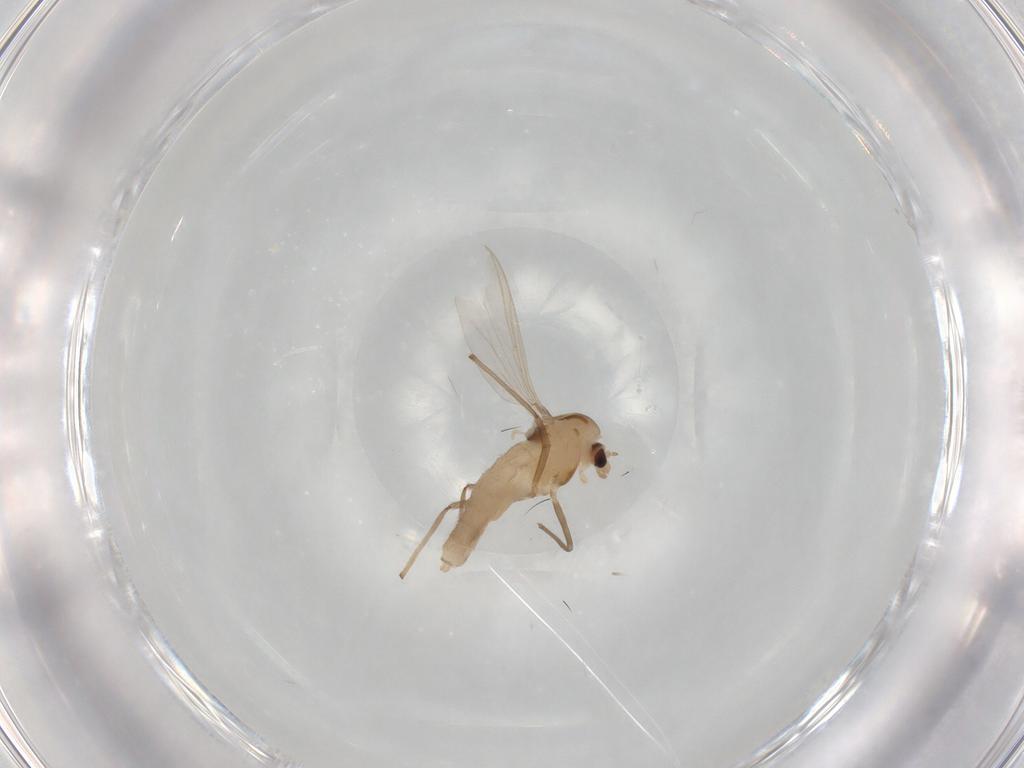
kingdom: Animalia
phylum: Arthropoda
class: Insecta
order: Diptera
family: Chironomidae
